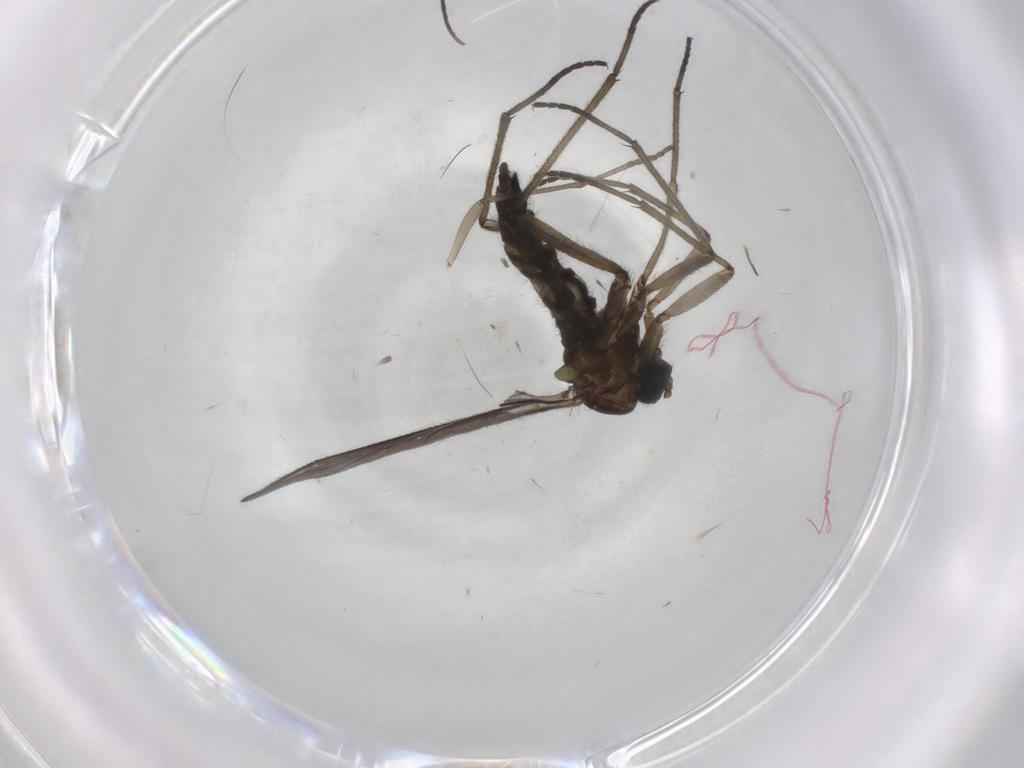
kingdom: Animalia
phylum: Arthropoda
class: Insecta
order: Diptera
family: Sciaridae
